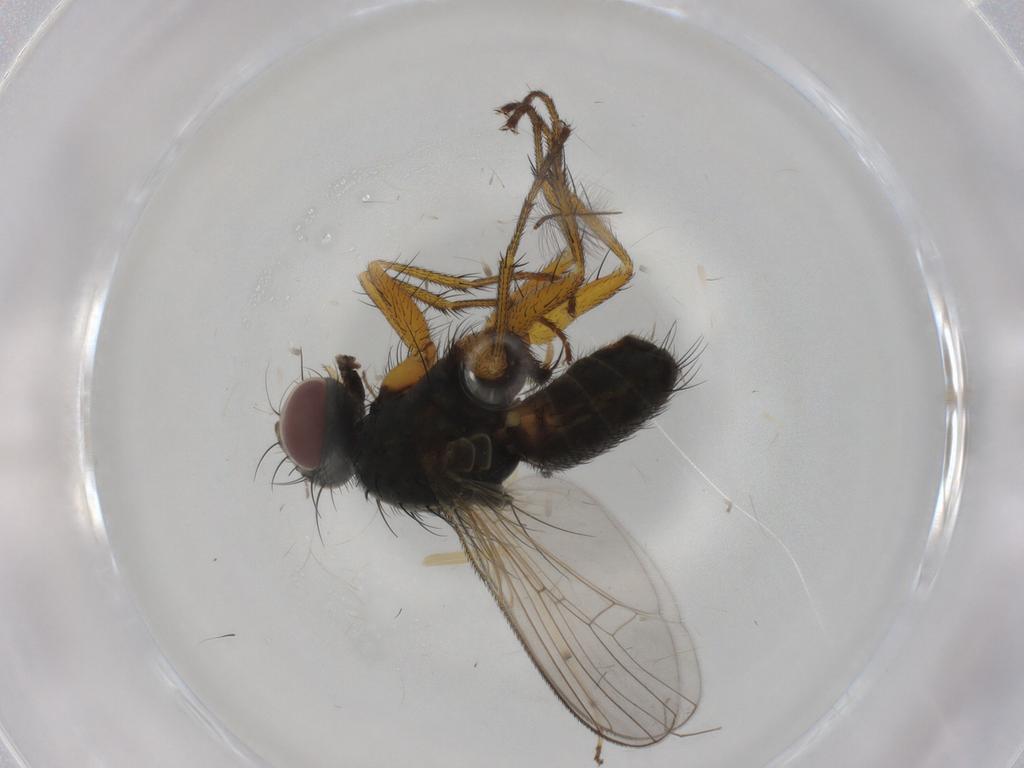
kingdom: Animalia
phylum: Arthropoda
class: Insecta
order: Diptera
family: Muscidae
